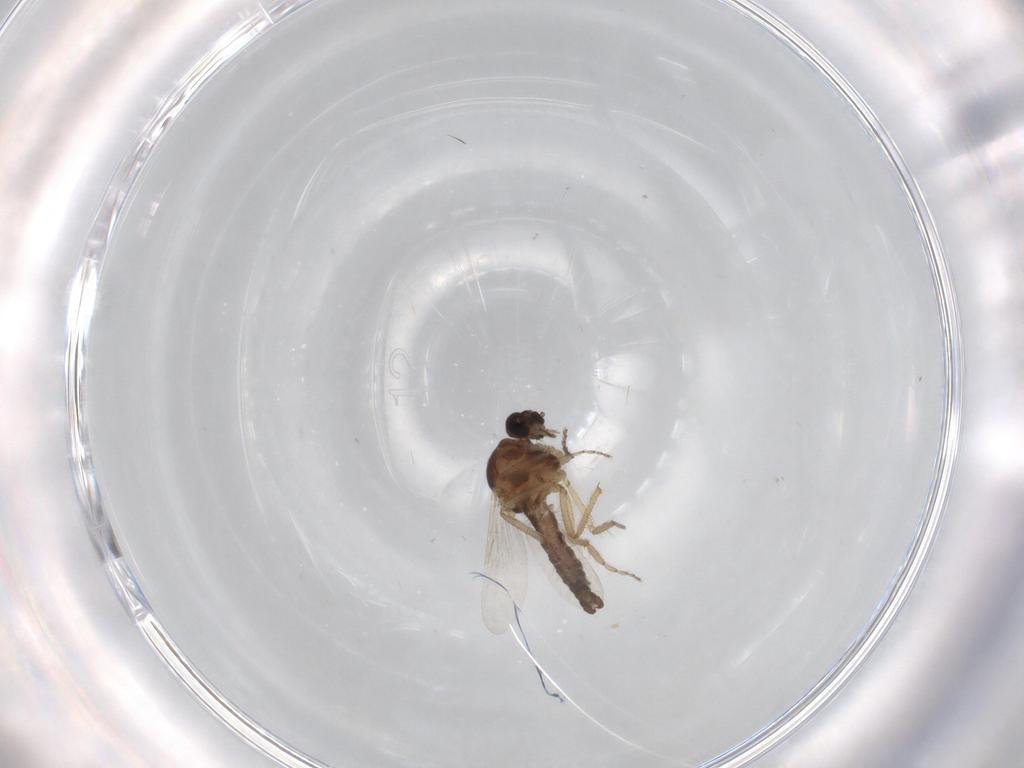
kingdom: Animalia
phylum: Arthropoda
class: Insecta
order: Diptera
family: Ceratopogonidae
